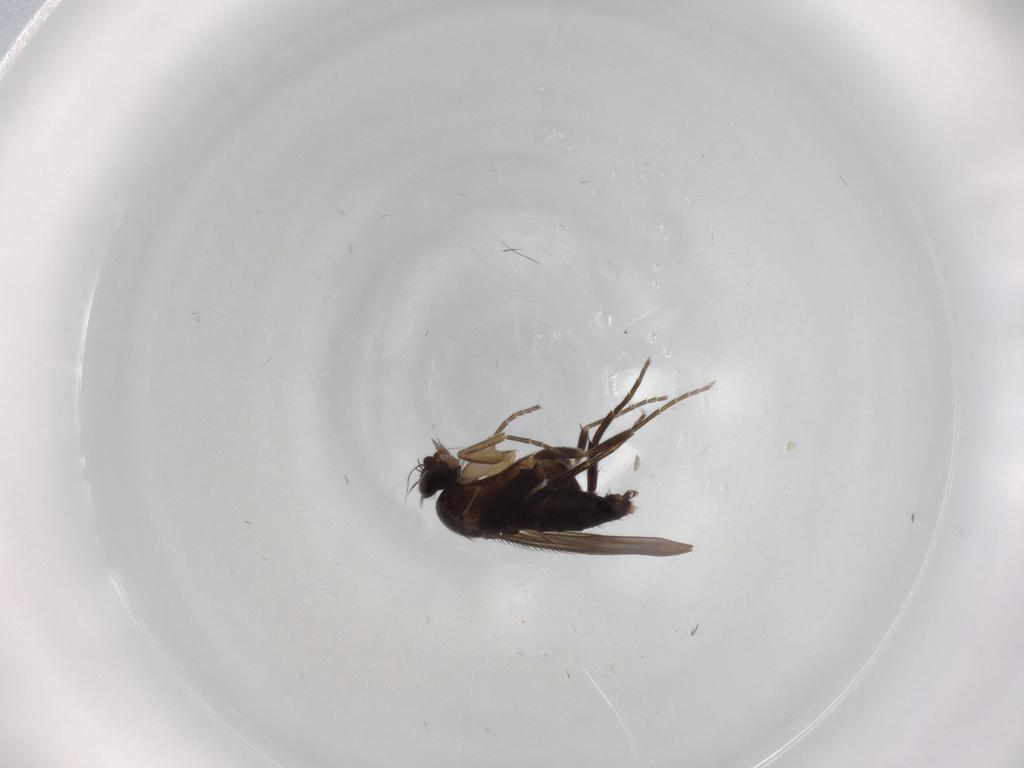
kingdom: Animalia
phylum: Arthropoda
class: Insecta
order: Diptera
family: Phoridae
